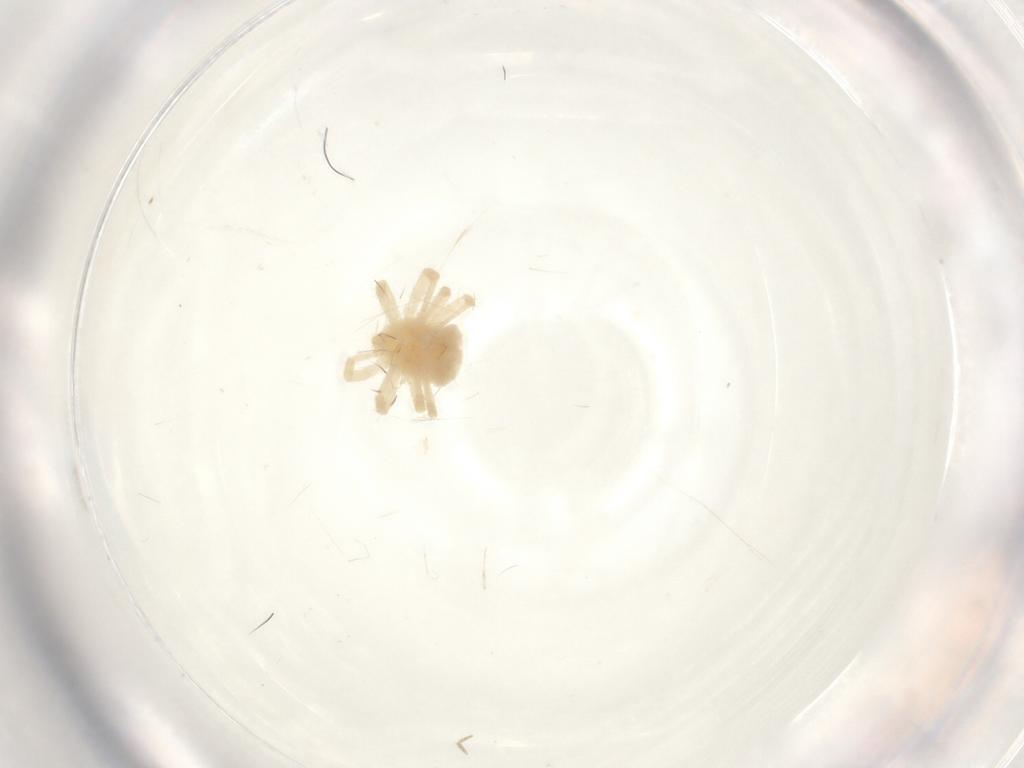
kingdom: Animalia
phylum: Arthropoda
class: Arachnida
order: Trombidiformes
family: Anystidae
